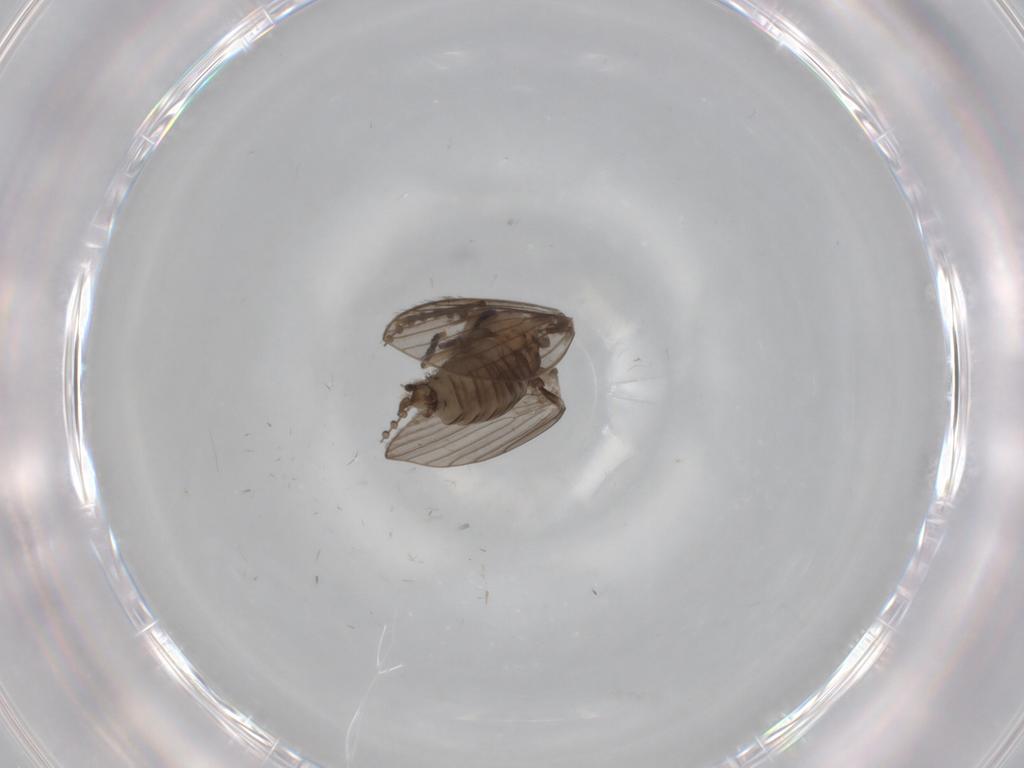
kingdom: Animalia
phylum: Arthropoda
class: Insecta
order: Diptera
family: Psychodidae
